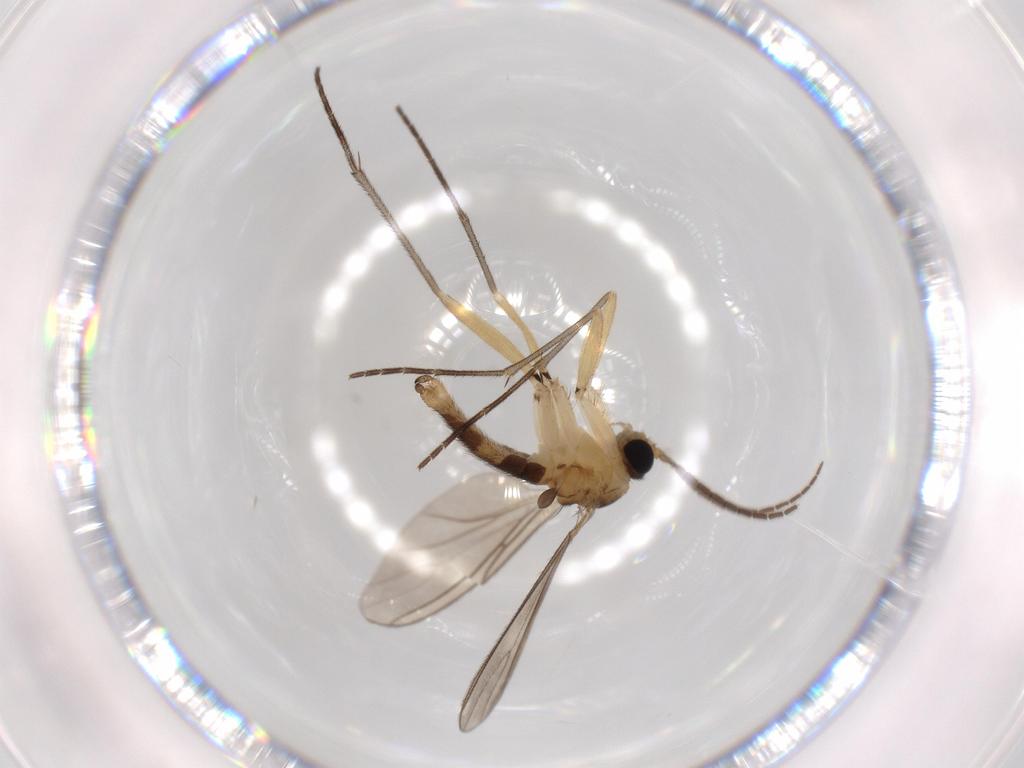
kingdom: Animalia
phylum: Arthropoda
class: Insecta
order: Diptera
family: Sciaridae
